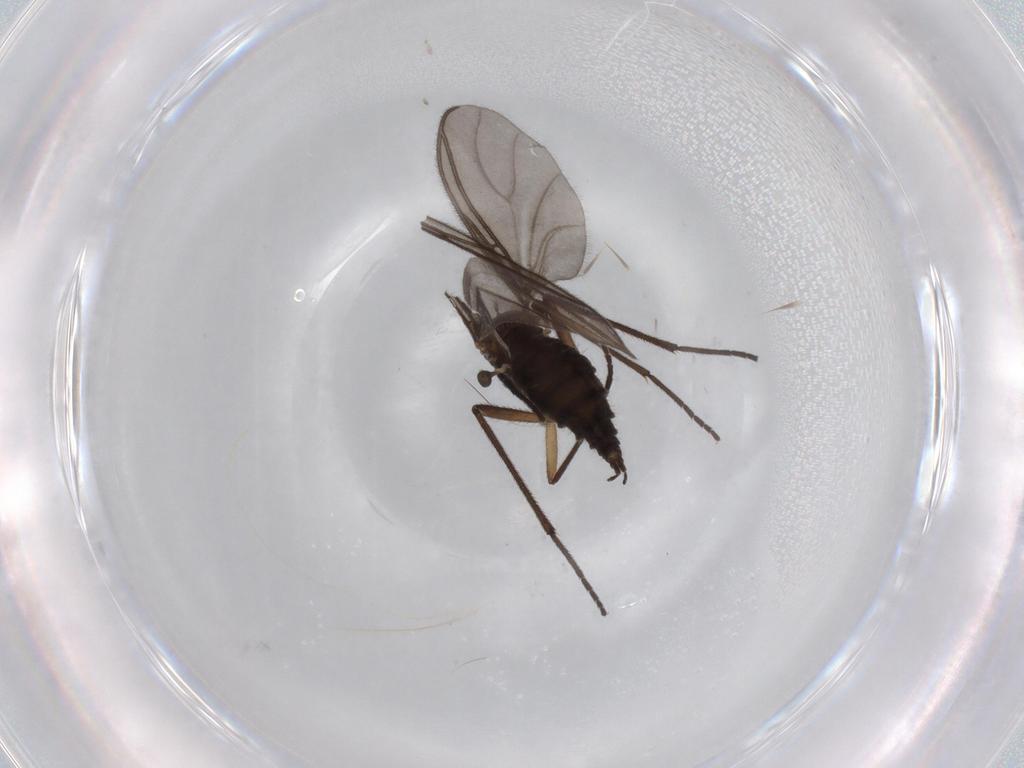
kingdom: Animalia
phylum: Arthropoda
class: Insecta
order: Diptera
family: Sciaridae
